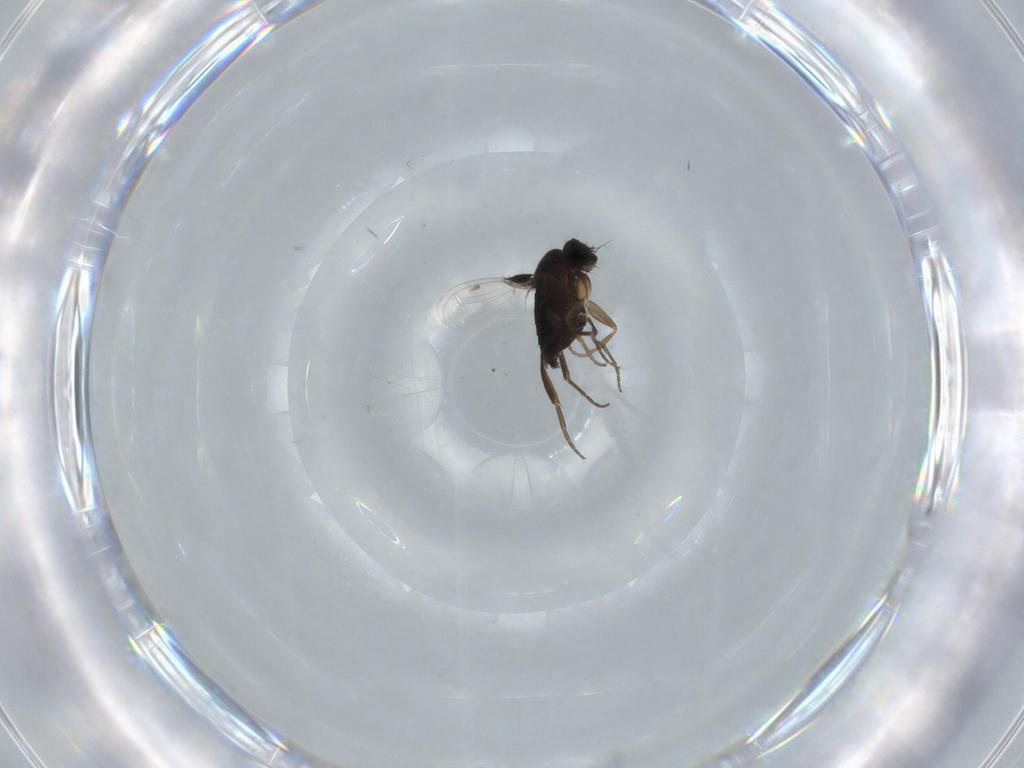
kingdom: Animalia
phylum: Arthropoda
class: Insecta
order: Diptera
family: Phoridae
